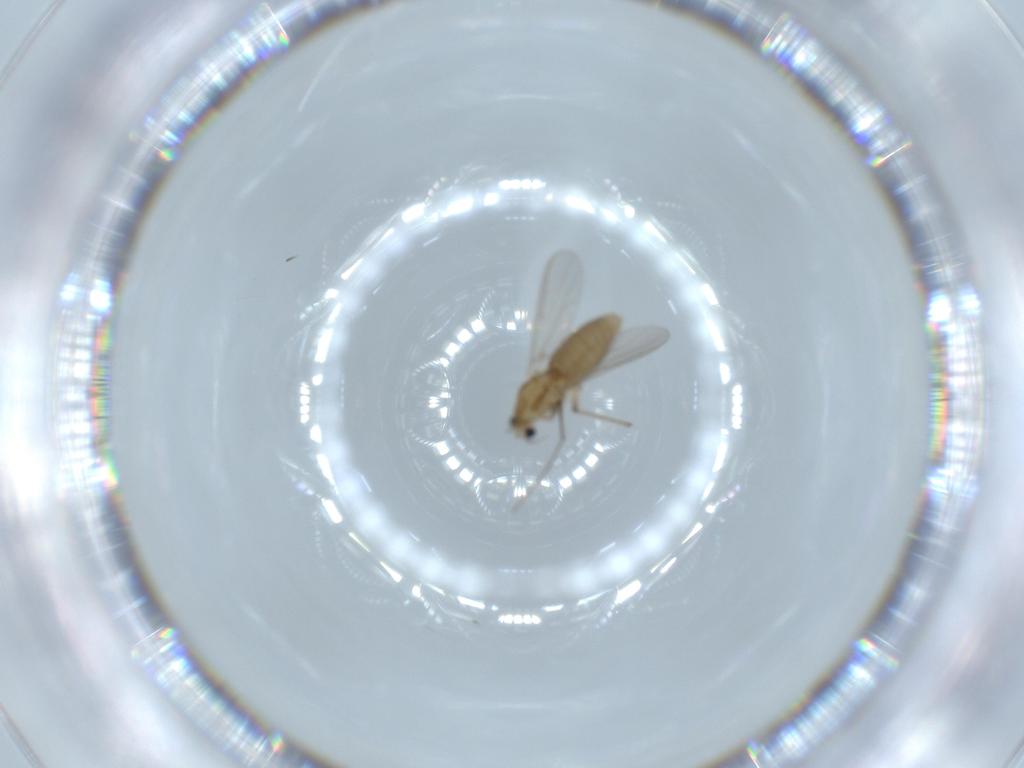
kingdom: Animalia
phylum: Arthropoda
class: Insecta
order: Diptera
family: Chironomidae
